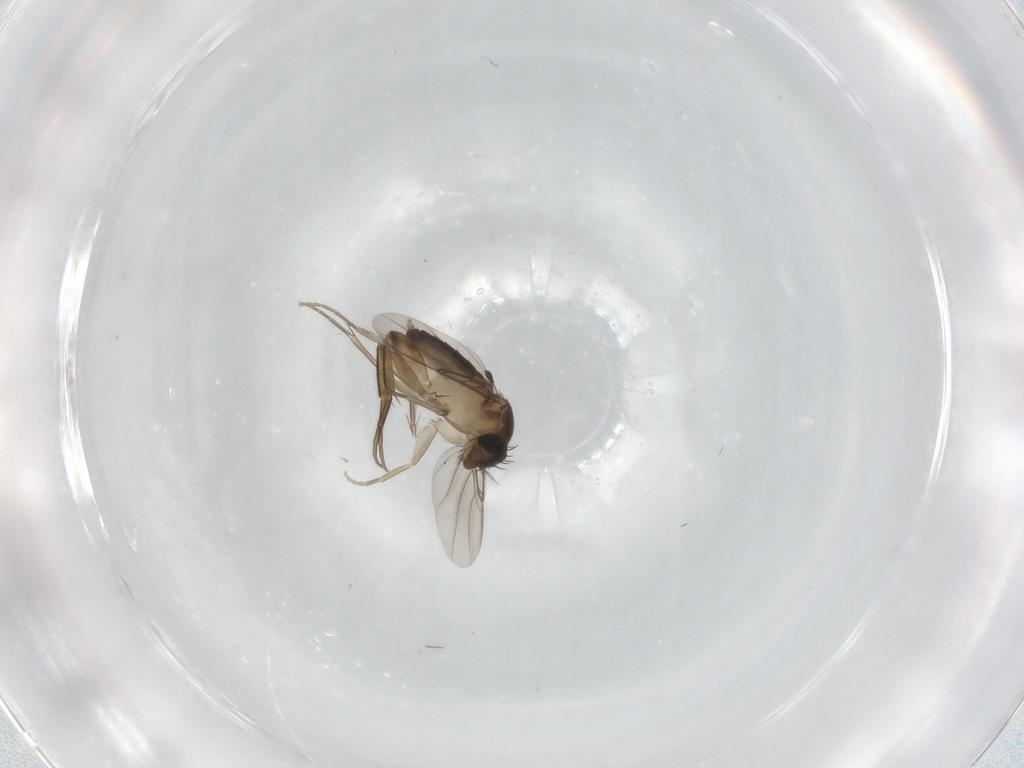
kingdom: Animalia
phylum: Arthropoda
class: Insecta
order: Diptera
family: Phoridae
